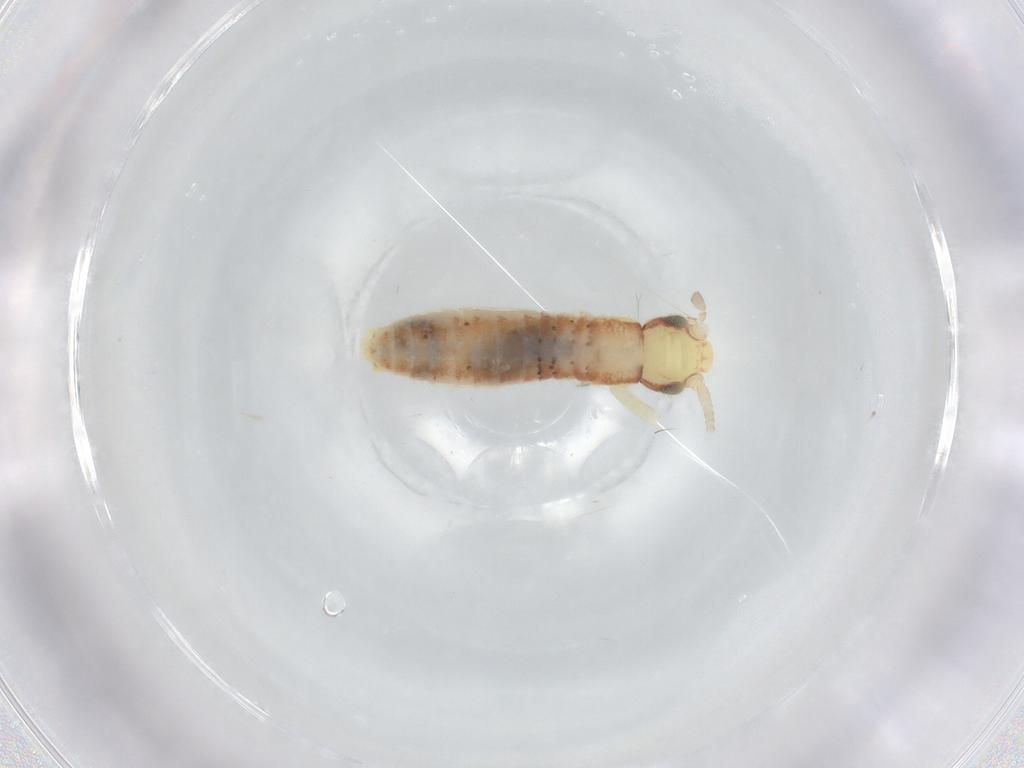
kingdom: Animalia
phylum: Arthropoda
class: Insecta
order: Orthoptera
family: Gryllidae
